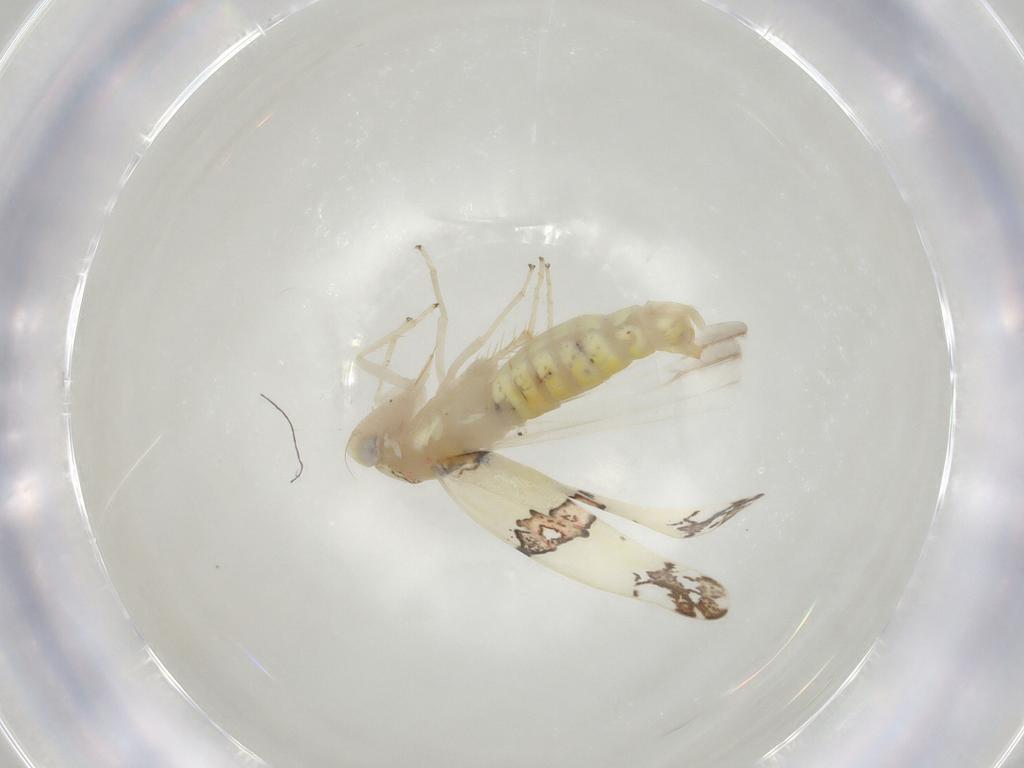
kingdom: Animalia
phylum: Arthropoda
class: Insecta
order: Hemiptera
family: Cicadellidae
